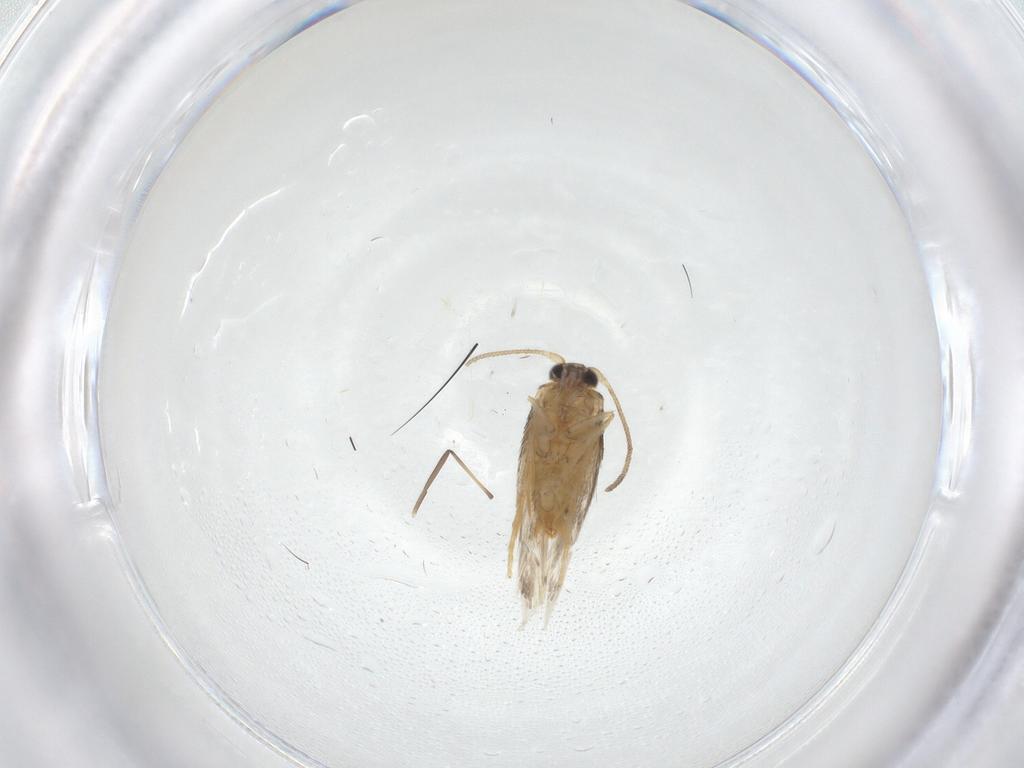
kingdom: Animalia
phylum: Arthropoda
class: Insecta
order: Lepidoptera
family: Nepticulidae
